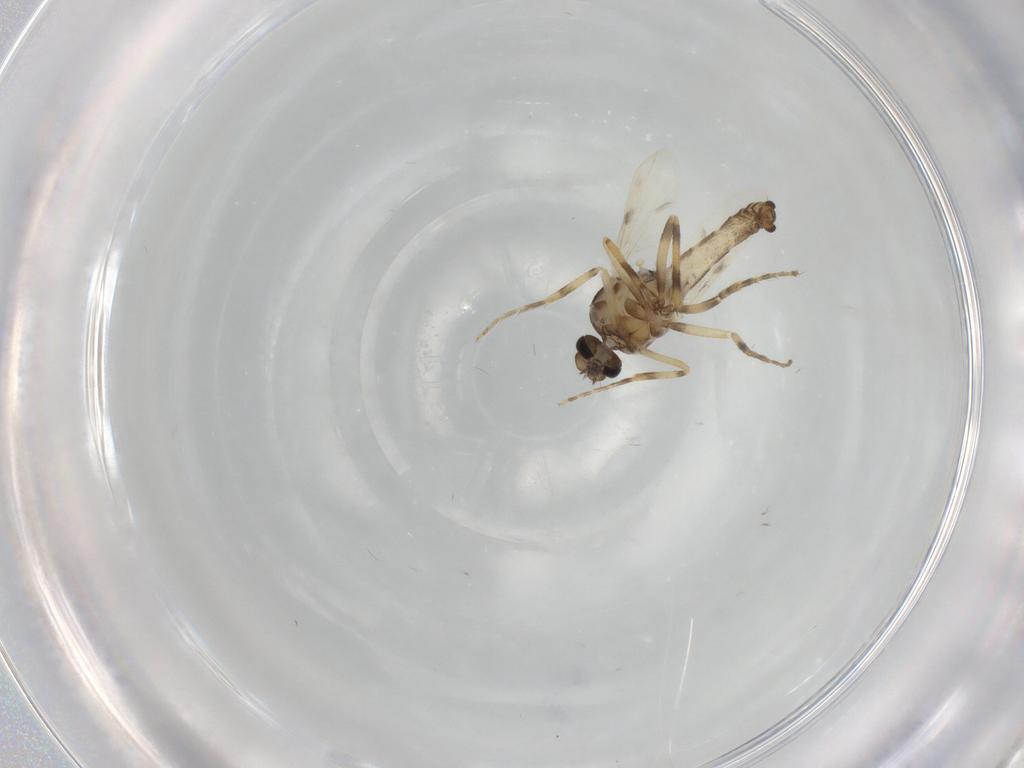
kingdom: Animalia
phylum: Arthropoda
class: Insecta
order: Diptera
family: Ceratopogonidae
